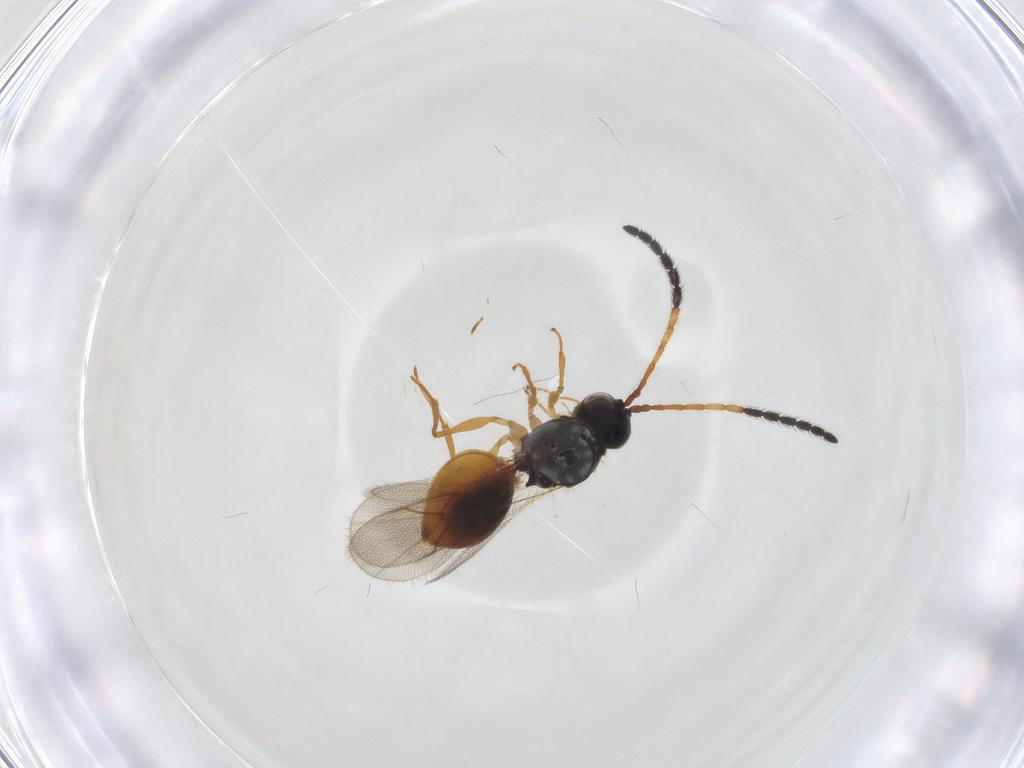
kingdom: Animalia
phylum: Arthropoda
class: Insecta
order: Hymenoptera
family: Figitidae
